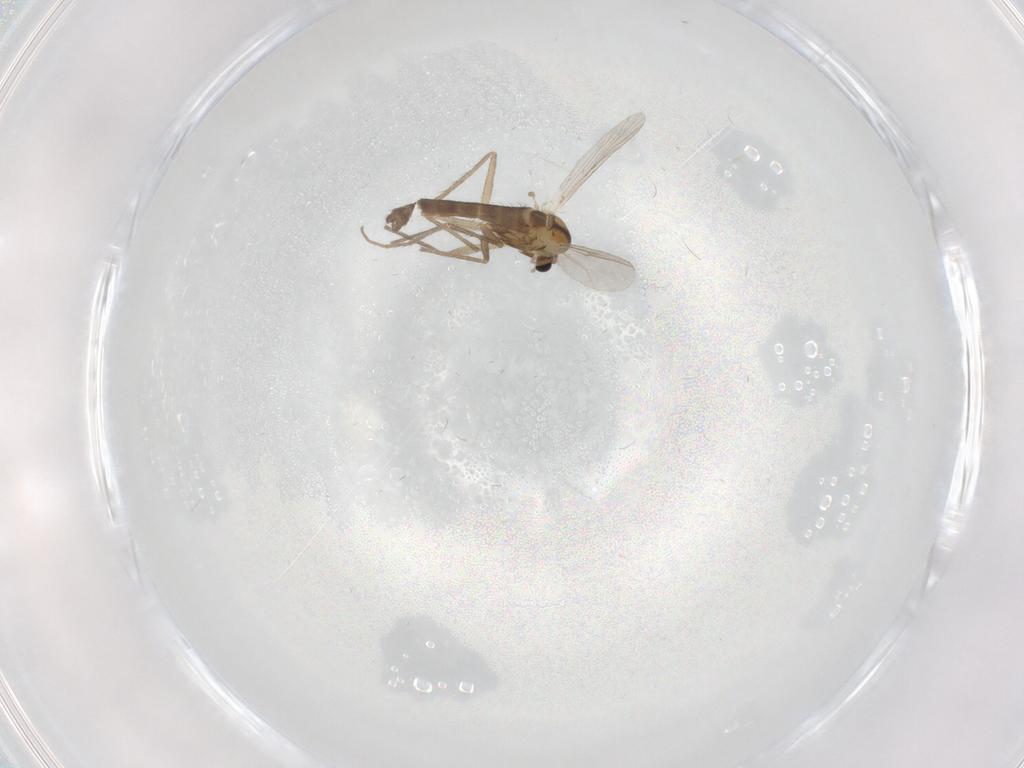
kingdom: Animalia
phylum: Arthropoda
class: Insecta
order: Diptera
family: Chironomidae
